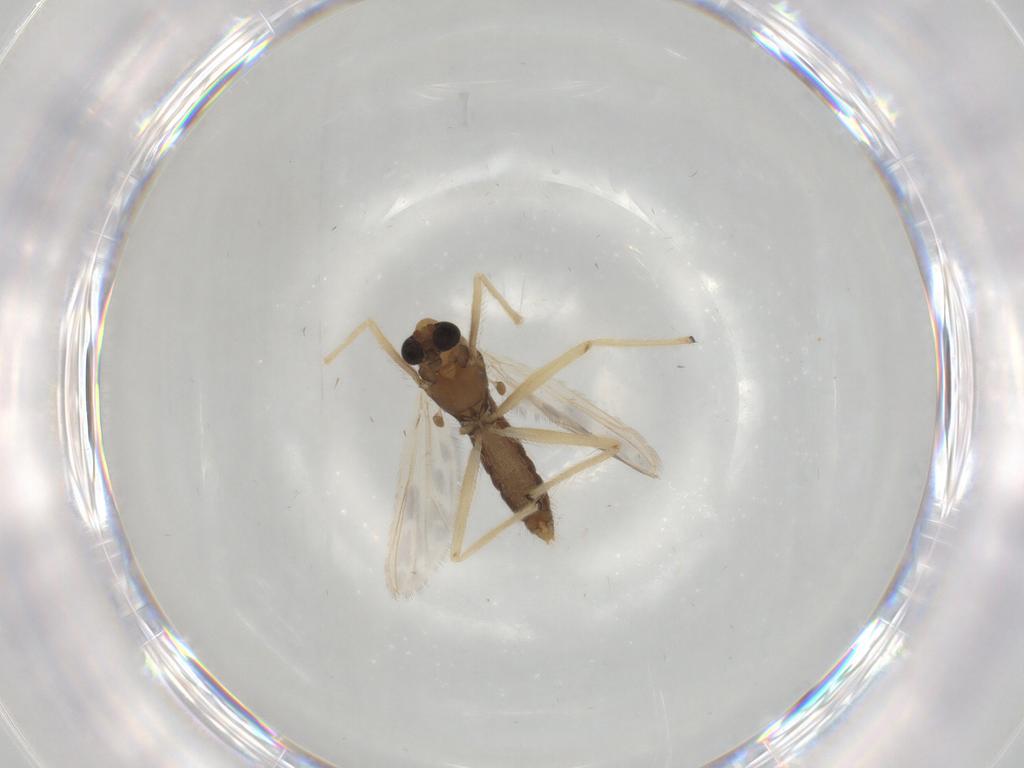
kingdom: Animalia
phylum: Arthropoda
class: Insecta
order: Diptera
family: Chironomidae
